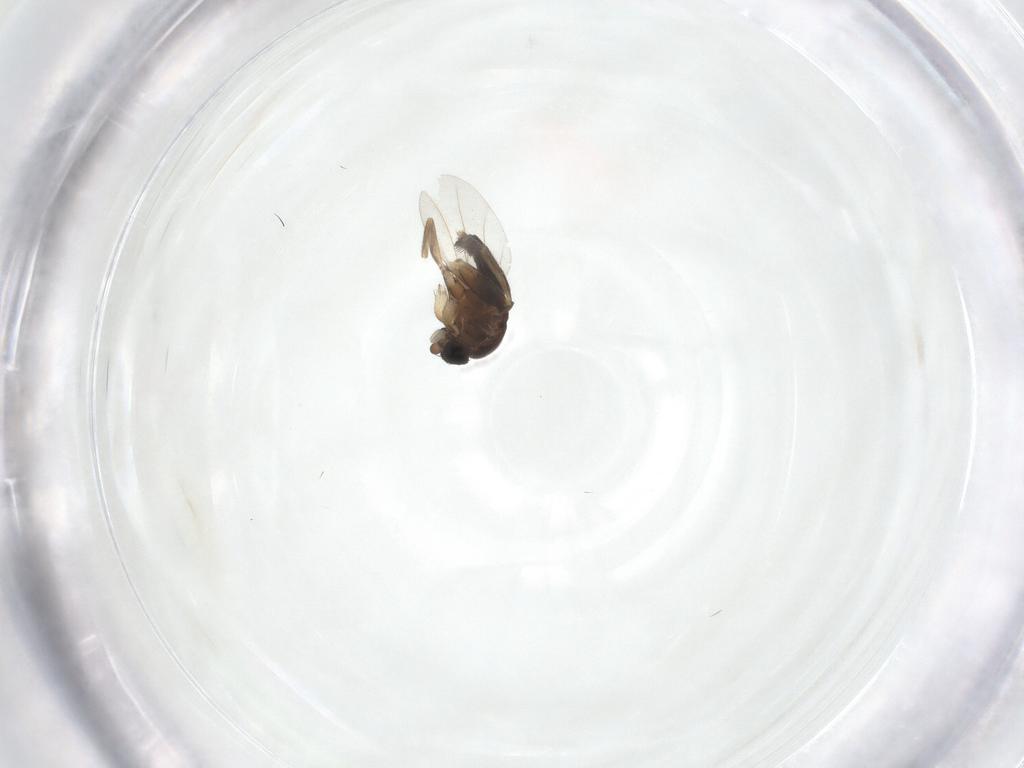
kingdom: Animalia
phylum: Arthropoda
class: Insecta
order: Diptera
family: Phoridae
